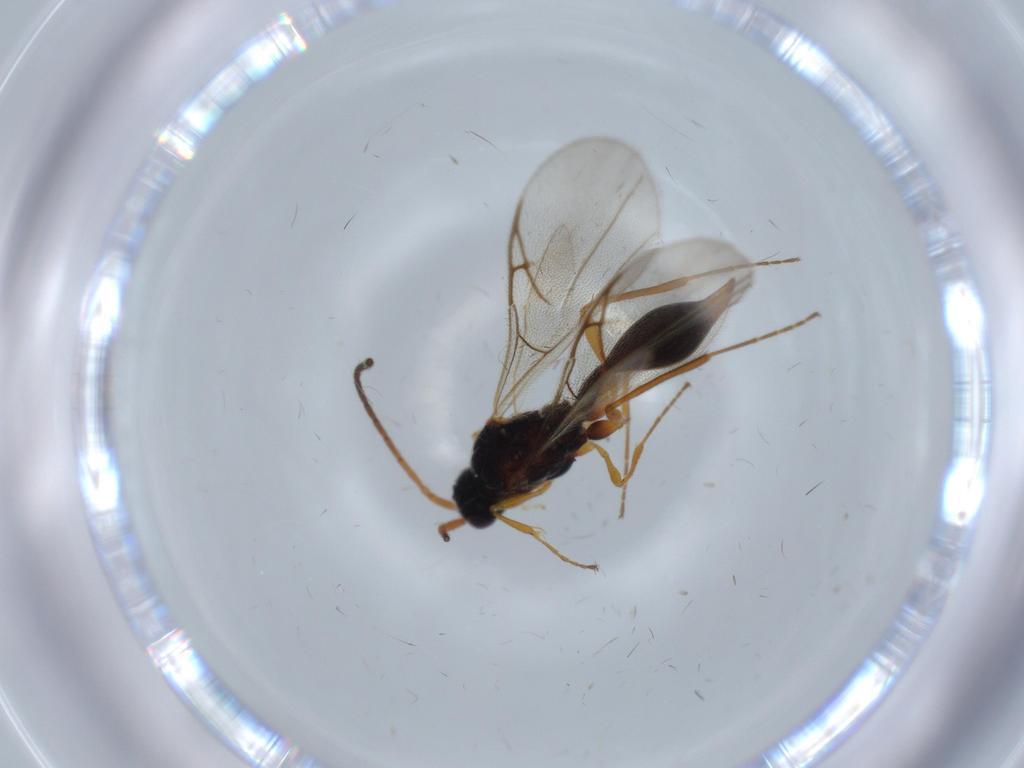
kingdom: Animalia
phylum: Arthropoda
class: Insecta
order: Hymenoptera
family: Diapriidae
